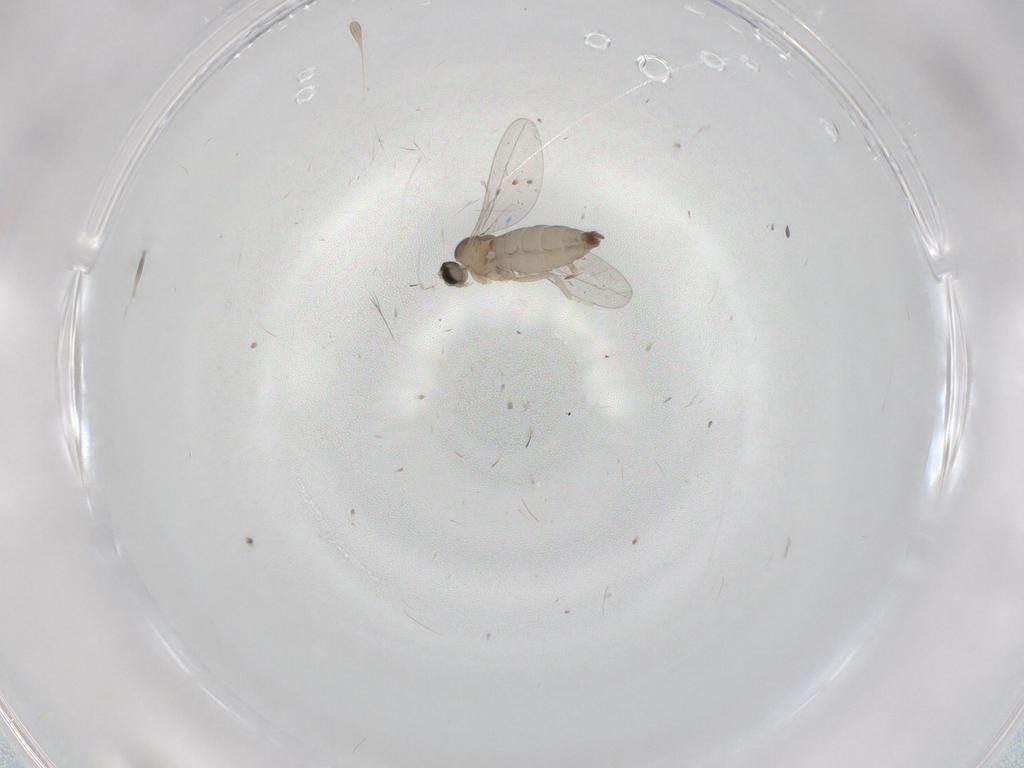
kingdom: Animalia
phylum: Arthropoda
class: Insecta
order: Diptera
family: Cecidomyiidae
